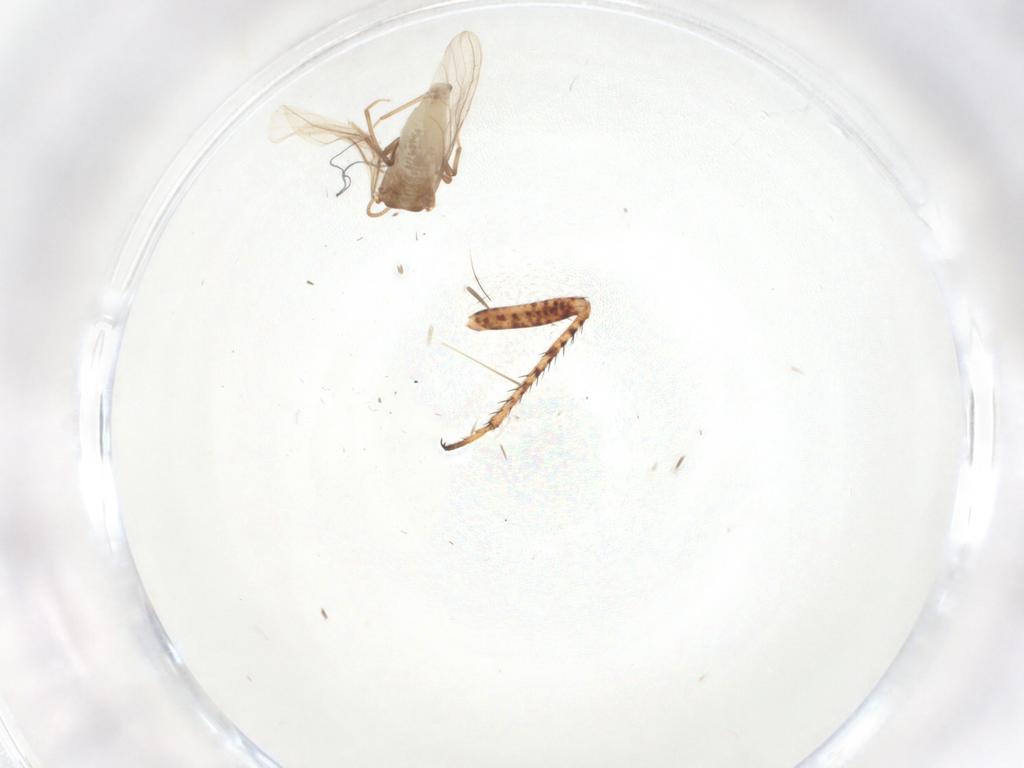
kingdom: Animalia
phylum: Arthropoda
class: Insecta
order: Neuroptera
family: Coniopterygidae
